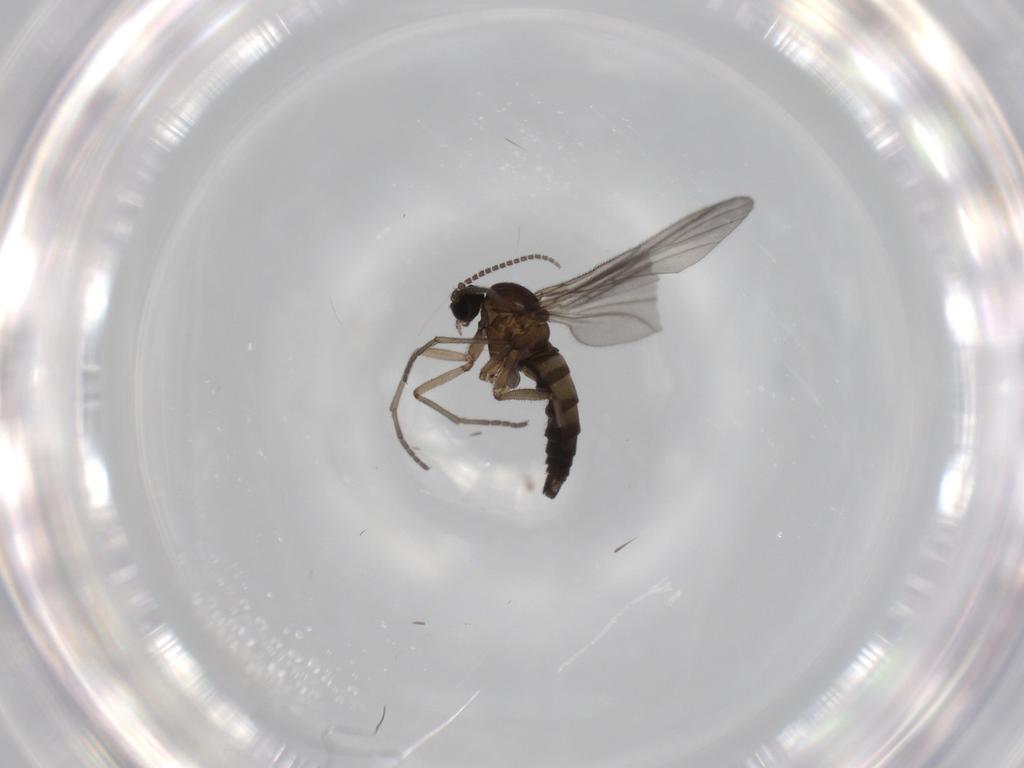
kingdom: Animalia
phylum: Arthropoda
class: Insecta
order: Diptera
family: Sciaridae
